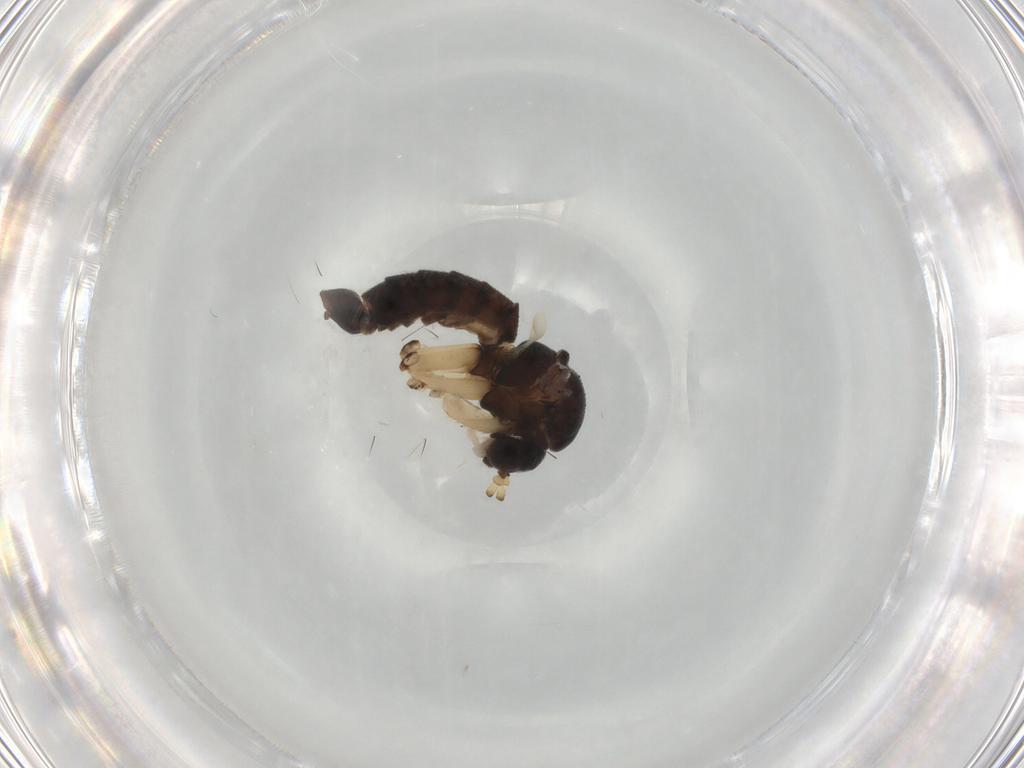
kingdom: Animalia
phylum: Arthropoda
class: Insecta
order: Diptera
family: Sciaridae
